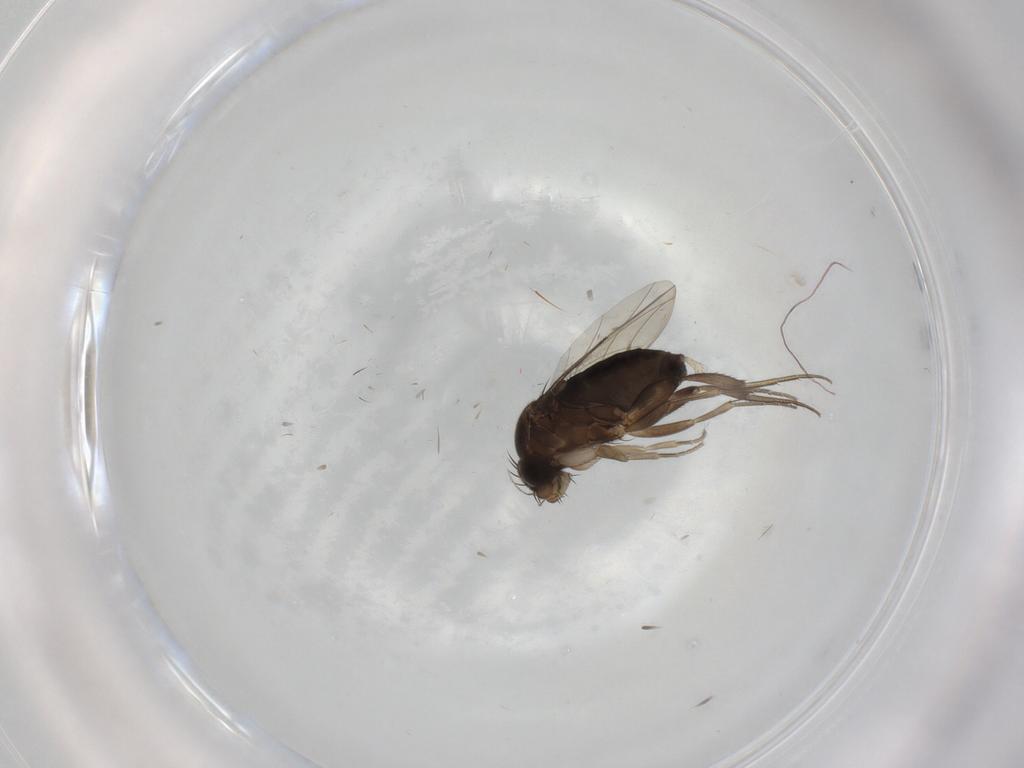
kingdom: Animalia
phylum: Arthropoda
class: Insecta
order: Diptera
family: Phoridae
